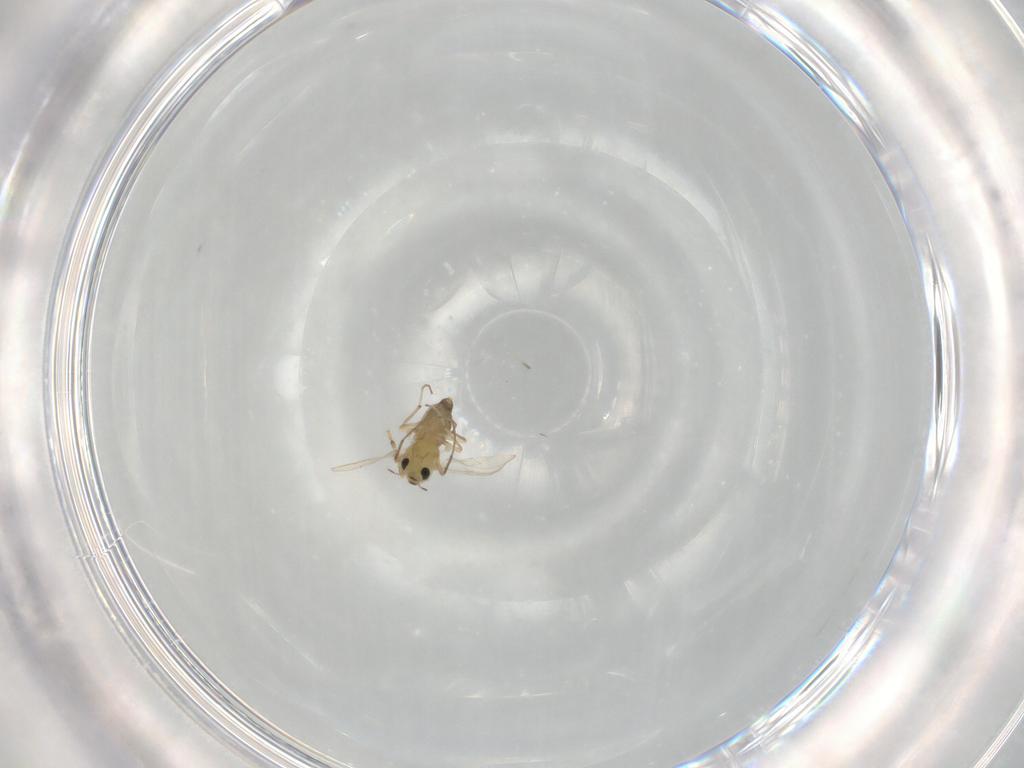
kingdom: Animalia
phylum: Arthropoda
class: Insecta
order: Diptera
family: Chironomidae
